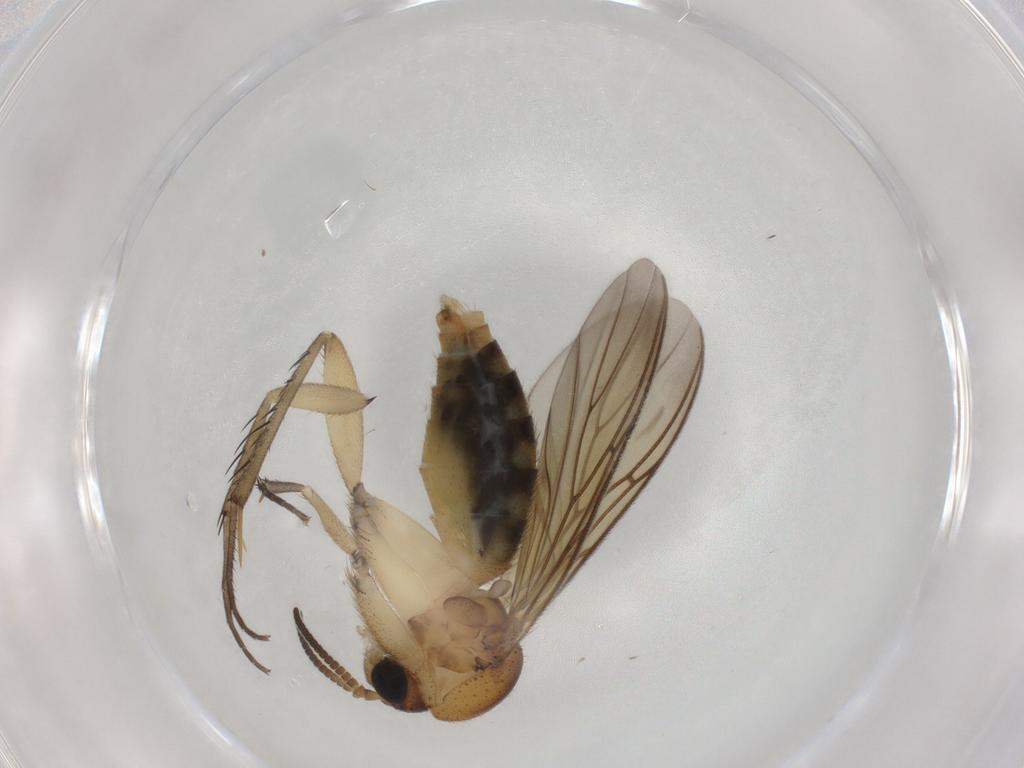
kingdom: Animalia
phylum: Arthropoda
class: Insecta
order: Diptera
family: Mycetophilidae
